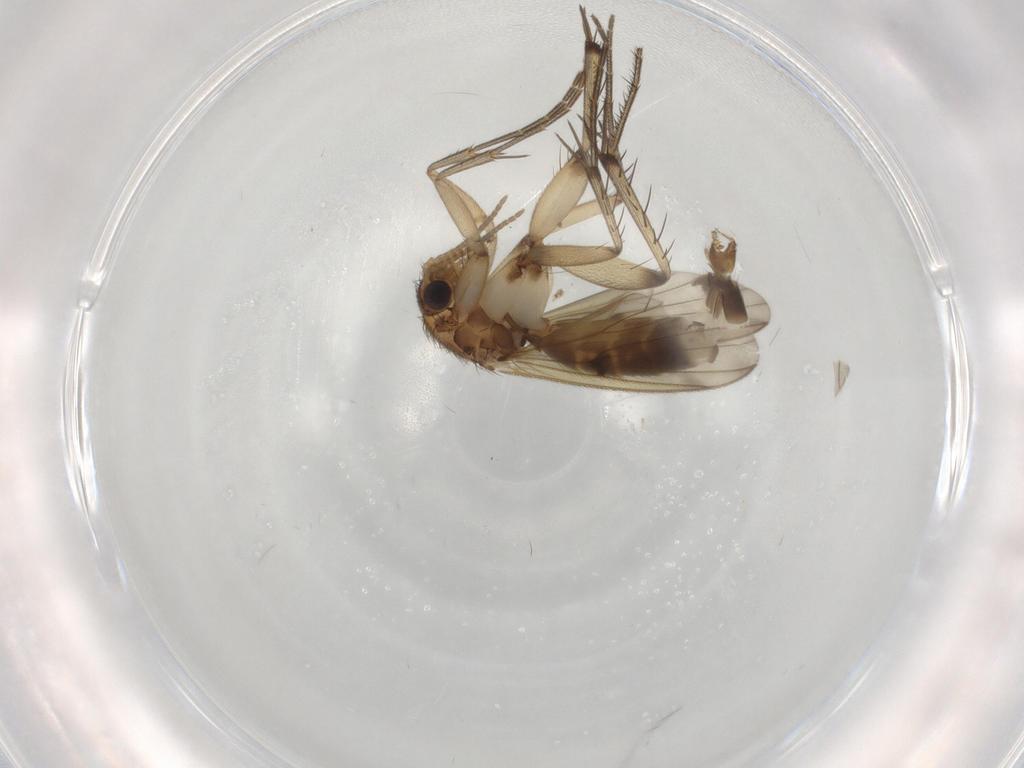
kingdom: Animalia
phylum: Arthropoda
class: Insecta
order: Diptera
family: Mycetophilidae
